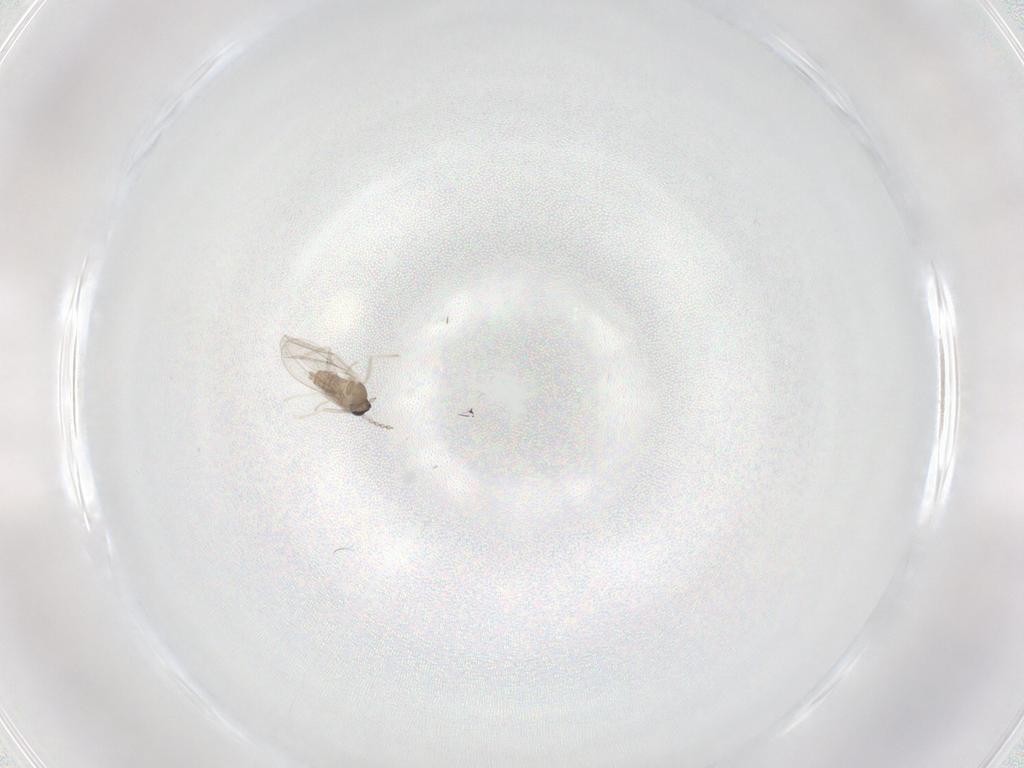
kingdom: Animalia
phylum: Arthropoda
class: Insecta
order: Diptera
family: Cecidomyiidae
